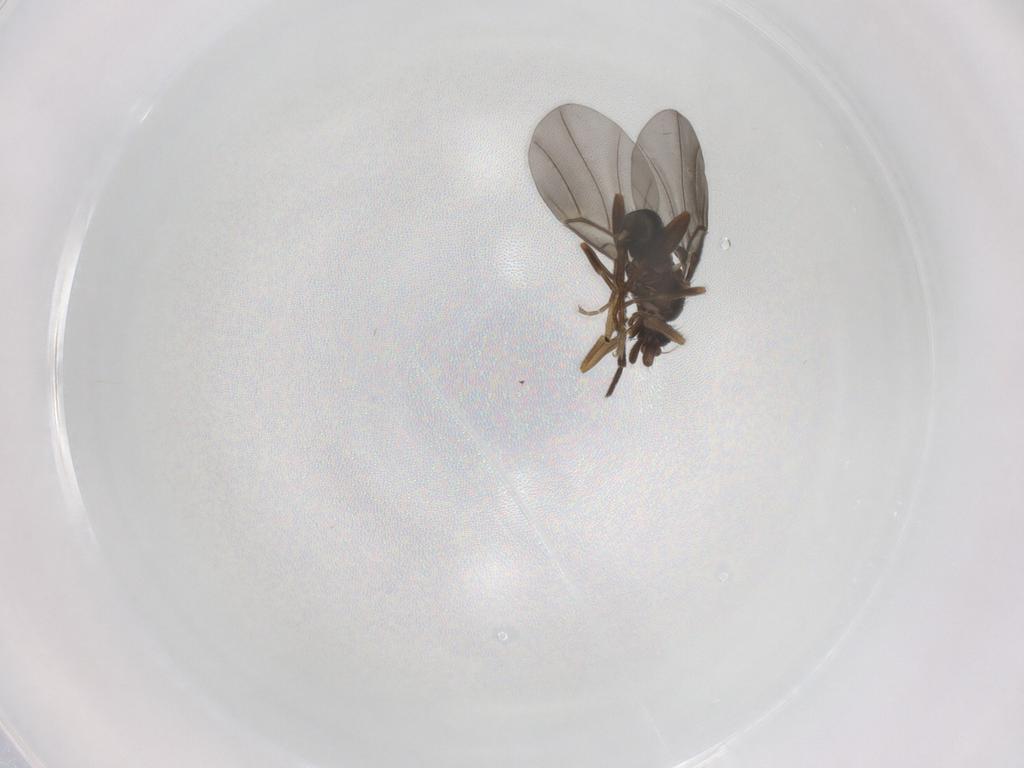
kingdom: Animalia
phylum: Arthropoda
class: Insecta
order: Diptera
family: Sciaridae
